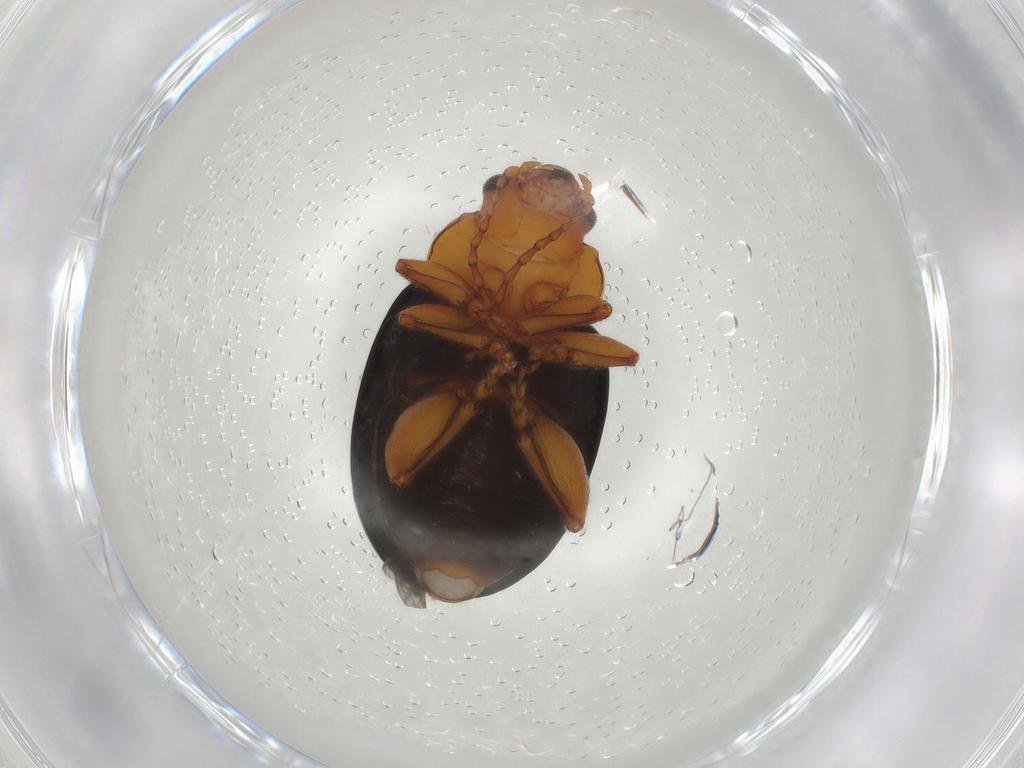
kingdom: Animalia
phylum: Arthropoda
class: Insecta
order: Coleoptera
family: Chrysomelidae
